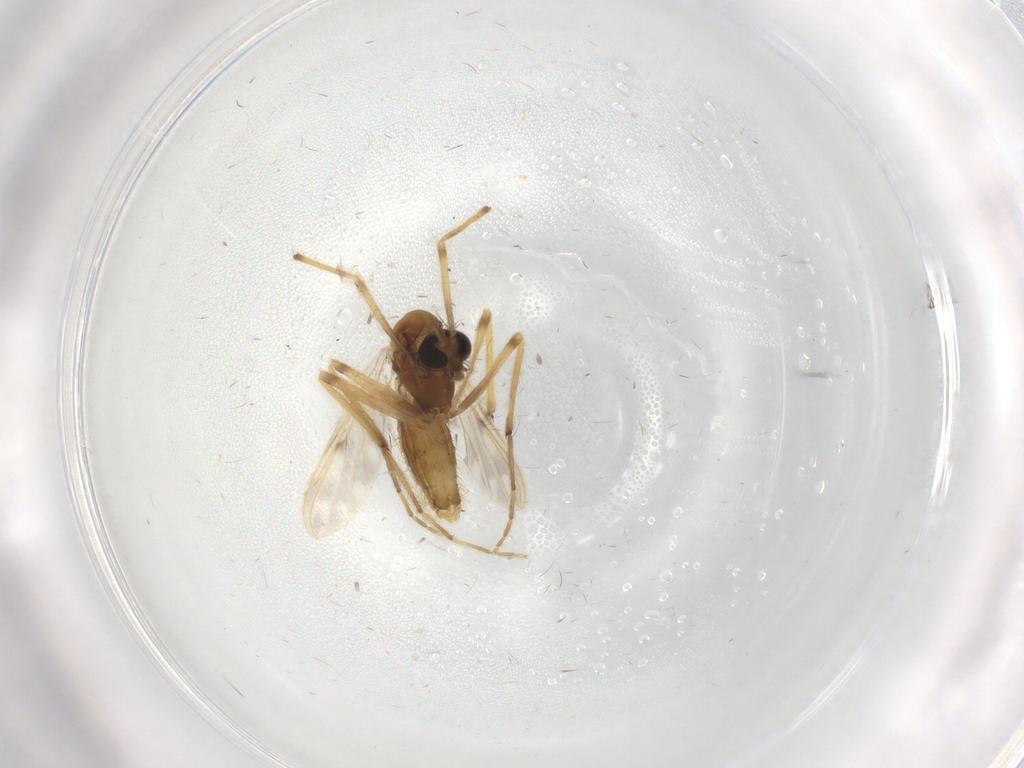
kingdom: Animalia
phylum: Arthropoda
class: Insecta
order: Diptera
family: Chironomidae
